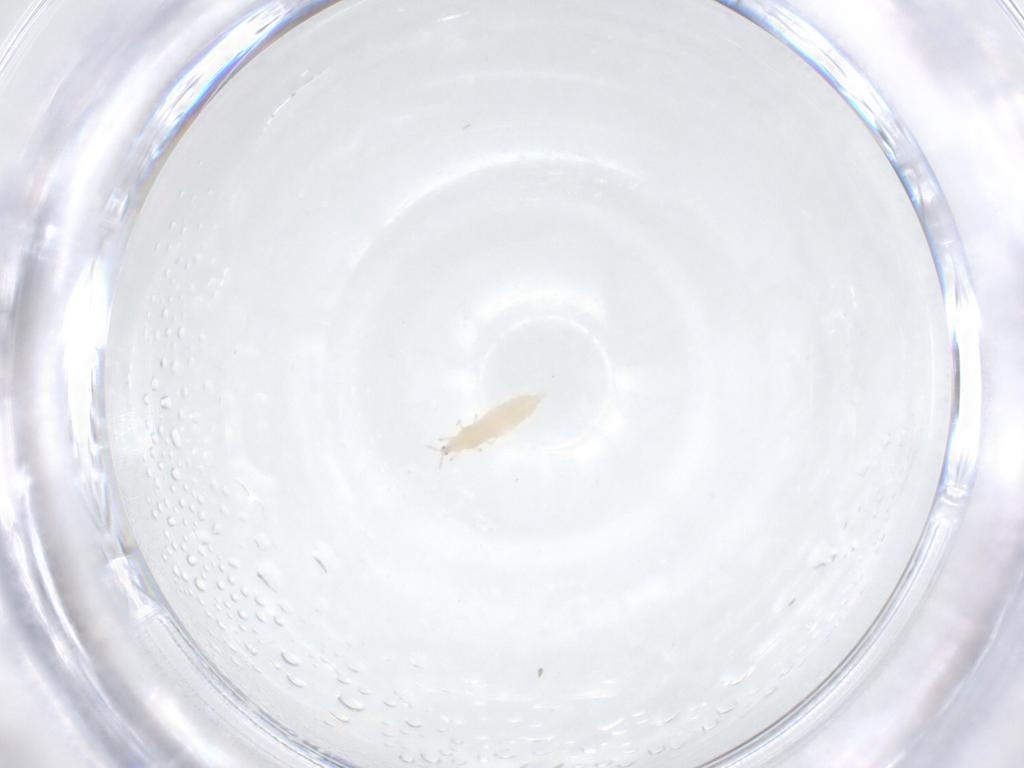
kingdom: Animalia
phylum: Arthropoda
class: Insecta
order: Thysanoptera
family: Thripidae
